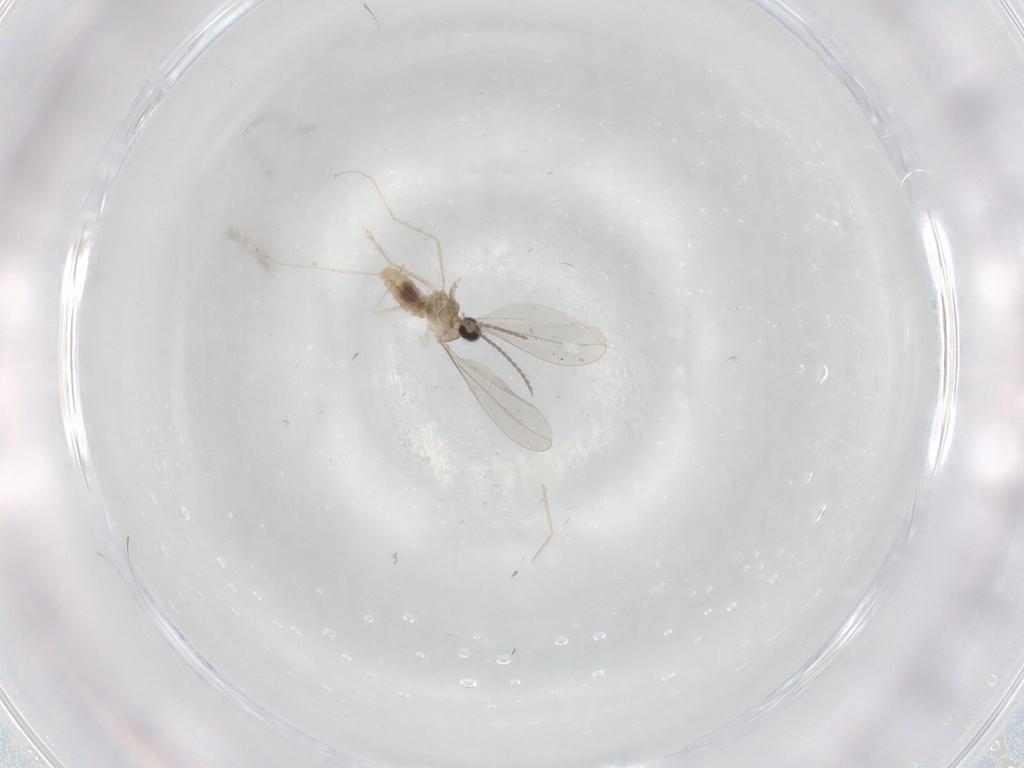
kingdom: Animalia
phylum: Arthropoda
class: Insecta
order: Diptera
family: Cecidomyiidae
